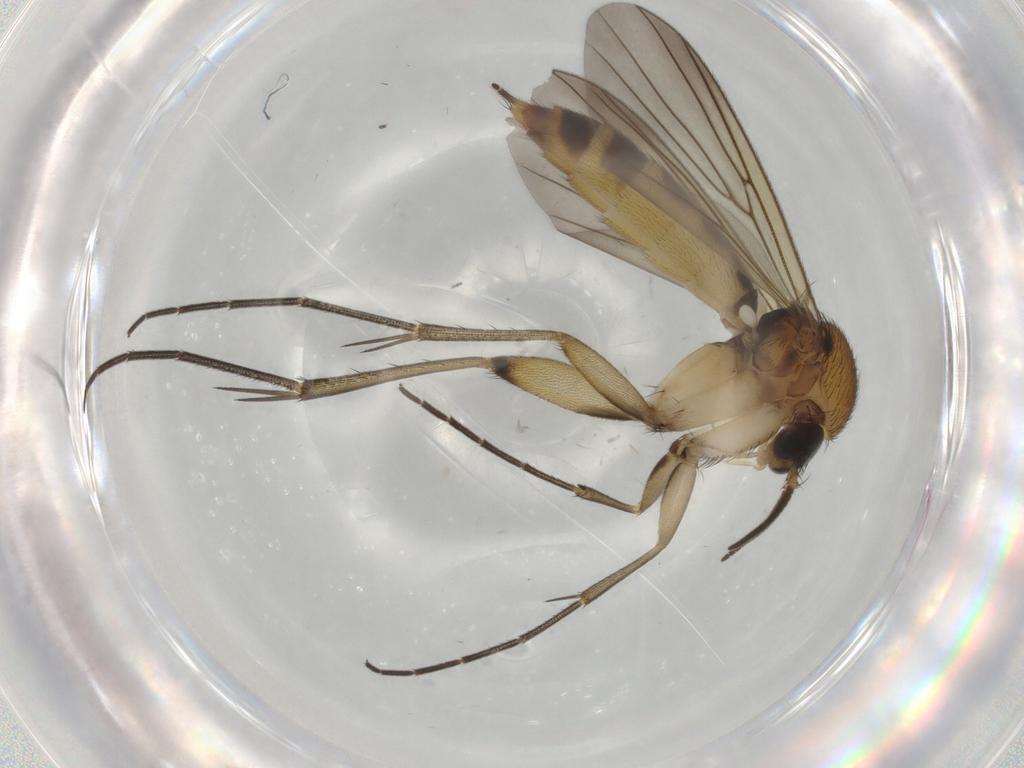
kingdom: Animalia
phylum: Arthropoda
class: Insecta
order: Diptera
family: Mycetophilidae
